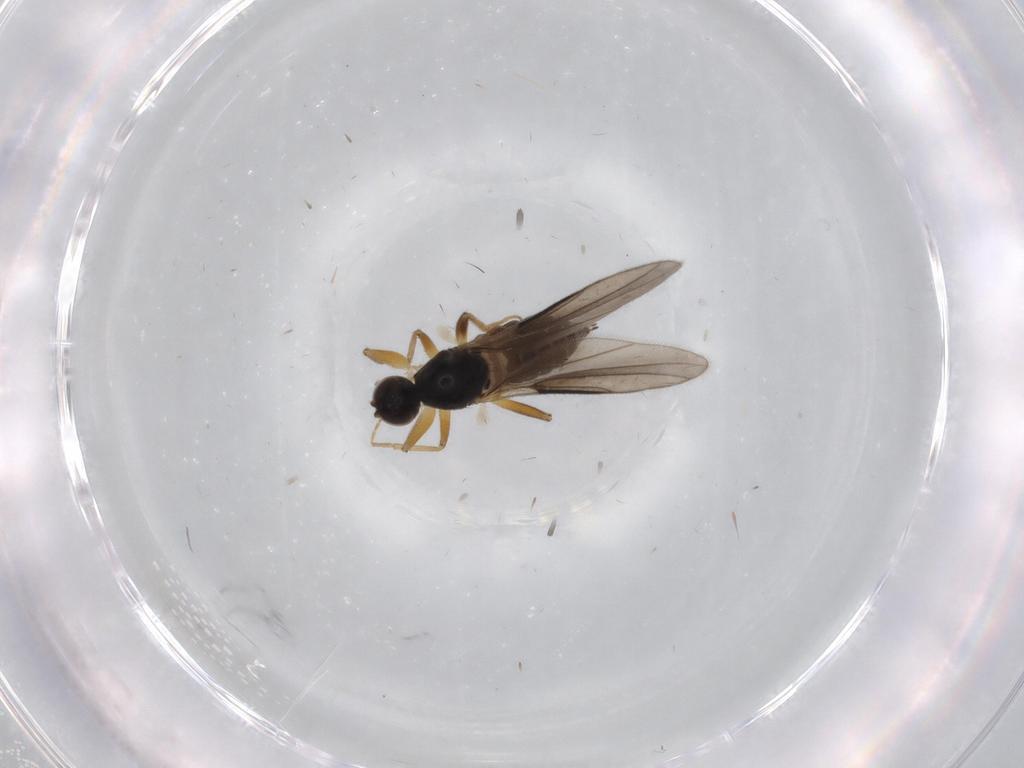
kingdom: Animalia
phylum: Arthropoda
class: Insecta
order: Diptera
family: Hybotidae
